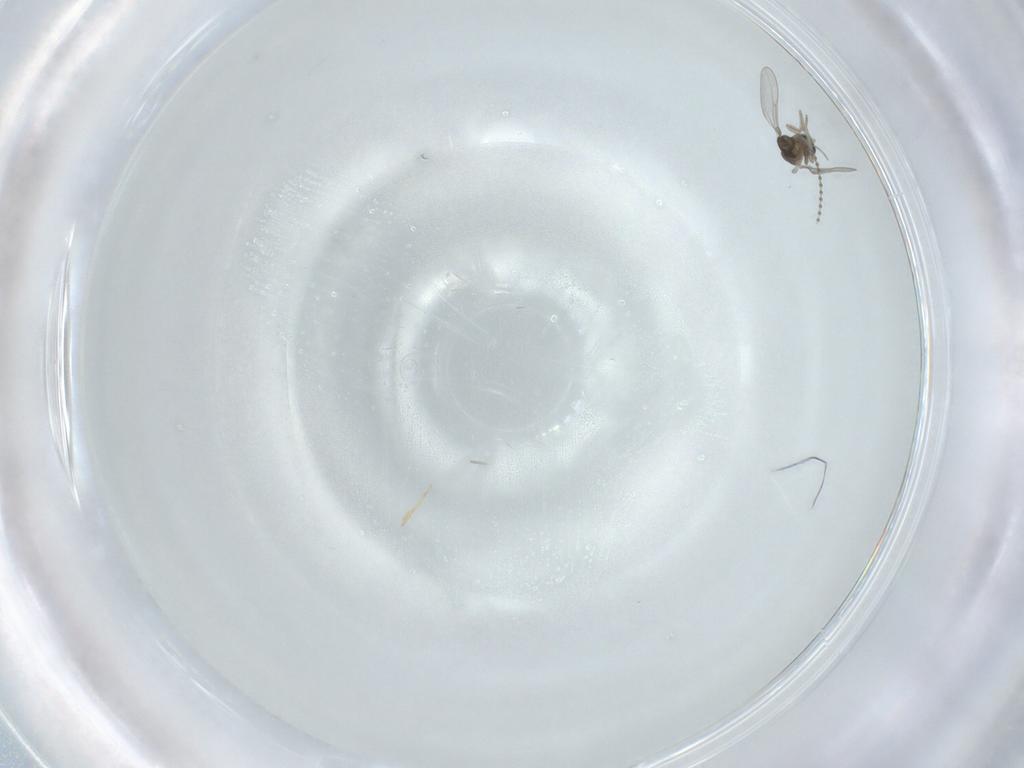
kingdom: Animalia
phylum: Arthropoda
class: Insecta
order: Diptera
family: Cecidomyiidae
